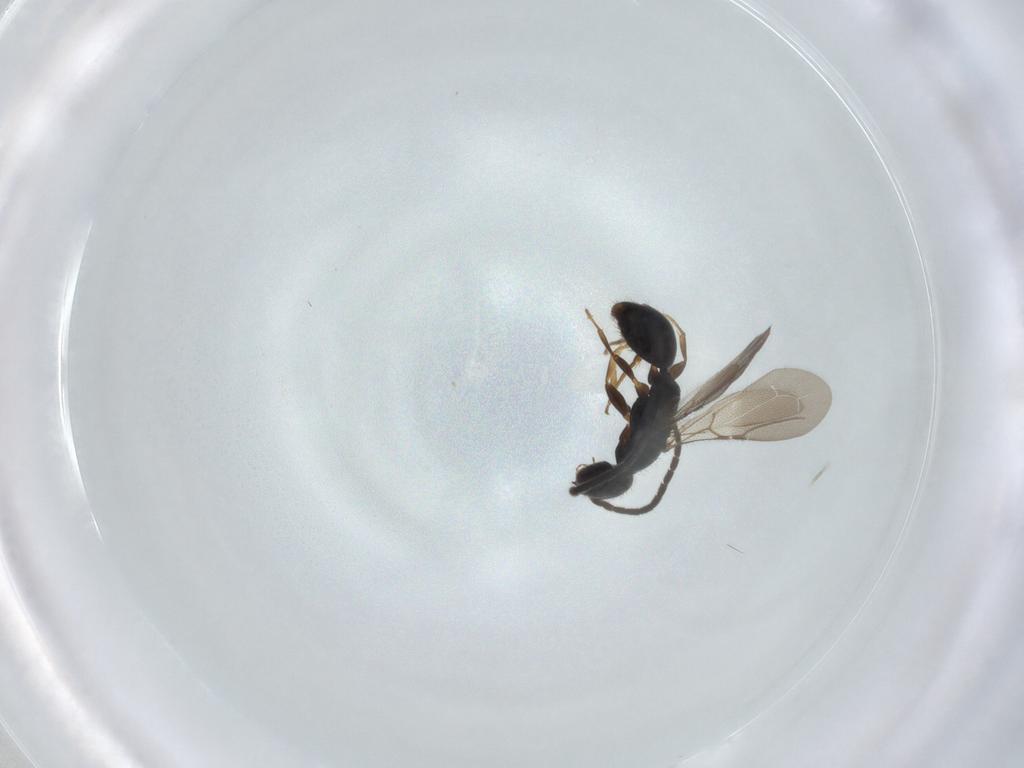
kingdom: Animalia
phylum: Arthropoda
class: Insecta
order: Hymenoptera
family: Bethylidae
